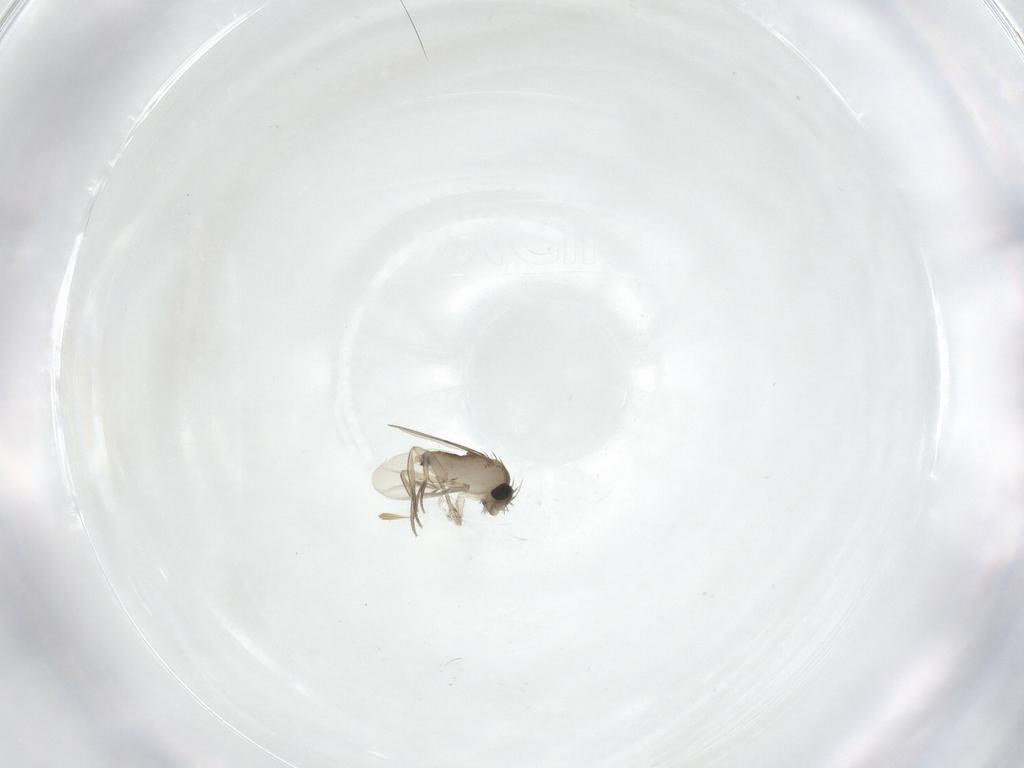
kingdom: Animalia
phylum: Arthropoda
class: Insecta
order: Diptera
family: Phoridae
